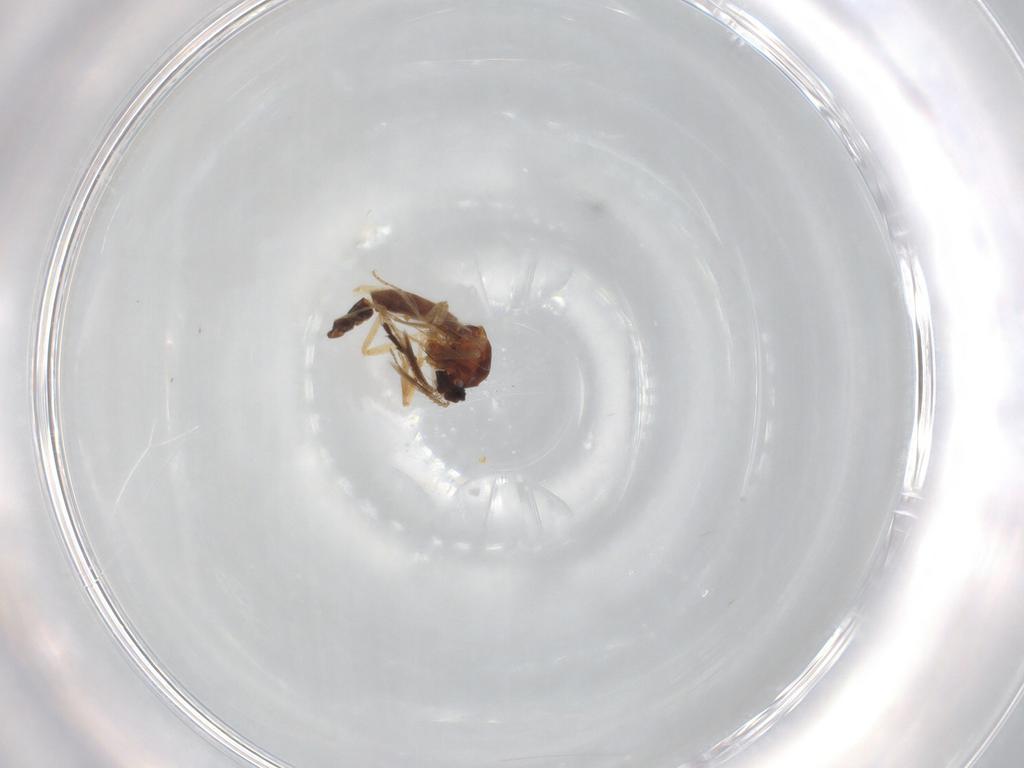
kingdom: Animalia
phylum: Arthropoda
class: Insecta
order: Diptera
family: Ceratopogonidae
